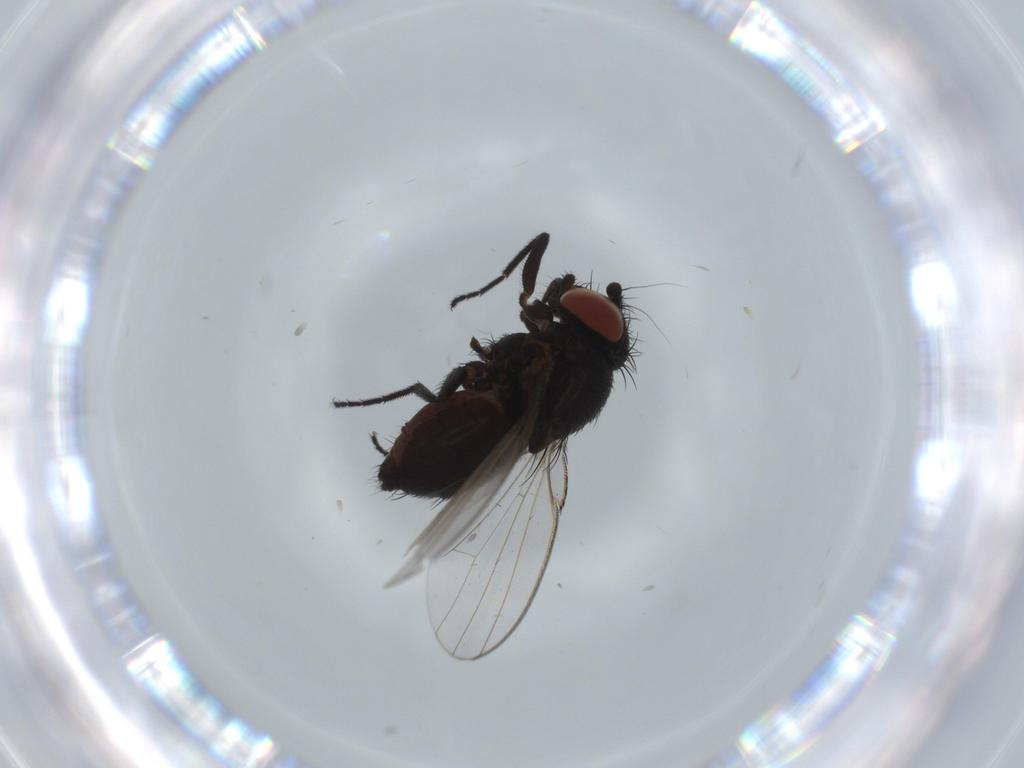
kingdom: Animalia
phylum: Arthropoda
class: Insecta
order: Diptera
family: Milichiidae
